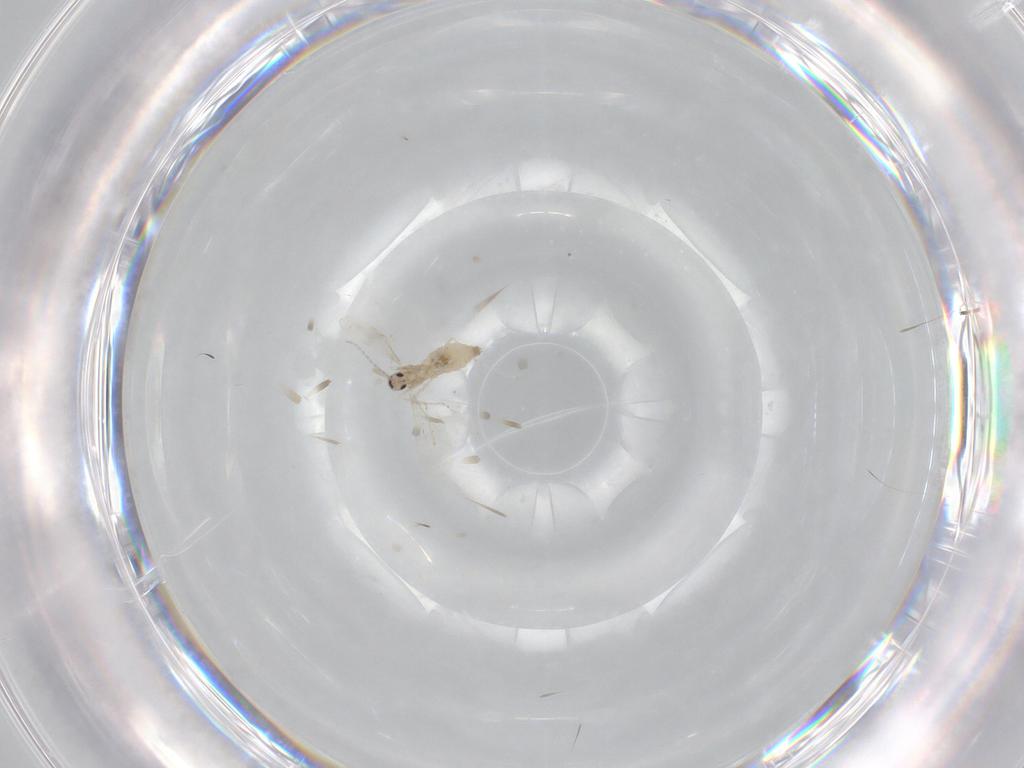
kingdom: Animalia
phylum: Arthropoda
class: Insecta
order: Diptera
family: Cecidomyiidae
